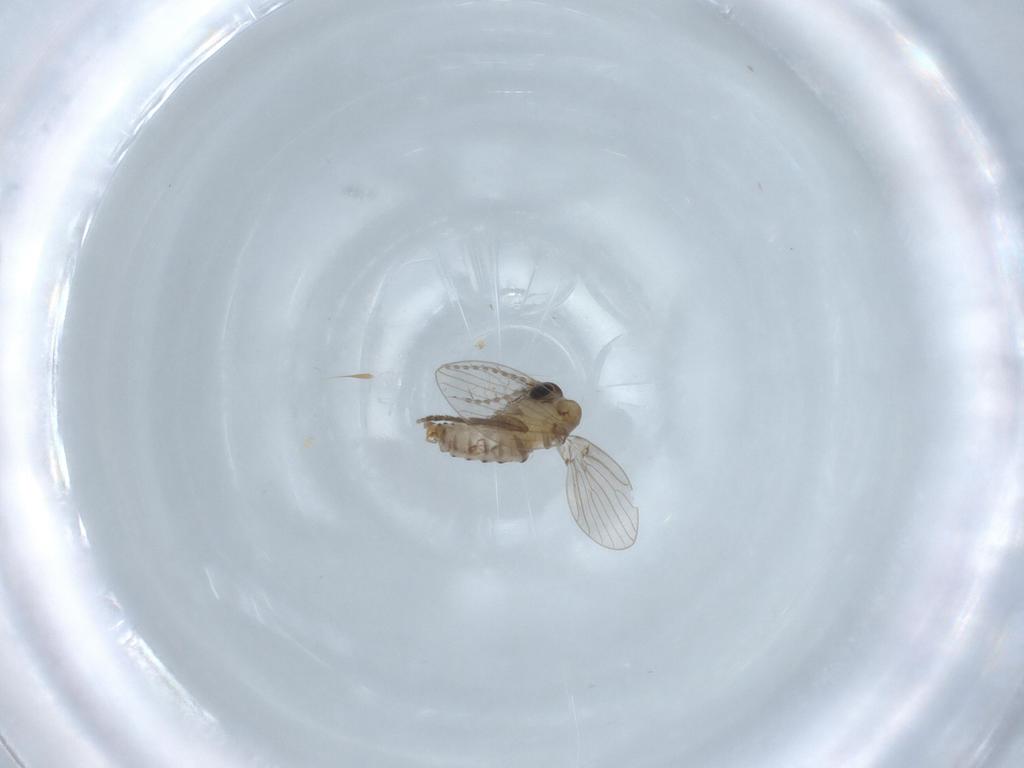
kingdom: Animalia
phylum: Arthropoda
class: Insecta
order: Diptera
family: Psychodidae
